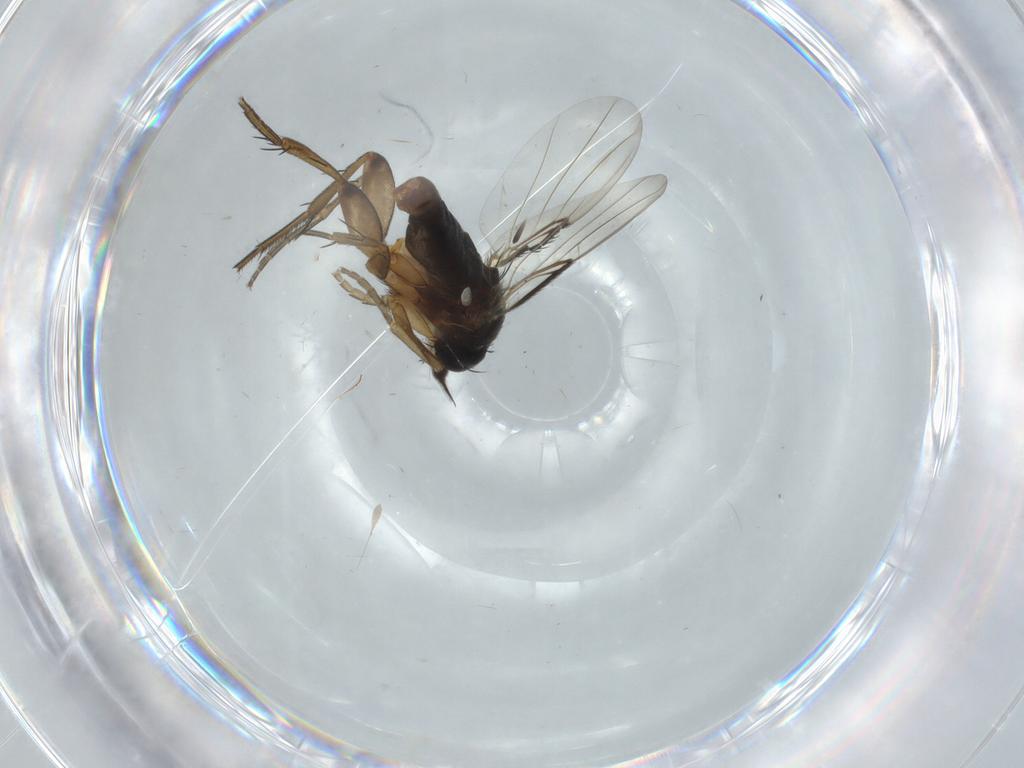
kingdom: Animalia
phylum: Arthropoda
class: Insecta
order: Diptera
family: Phoridae
